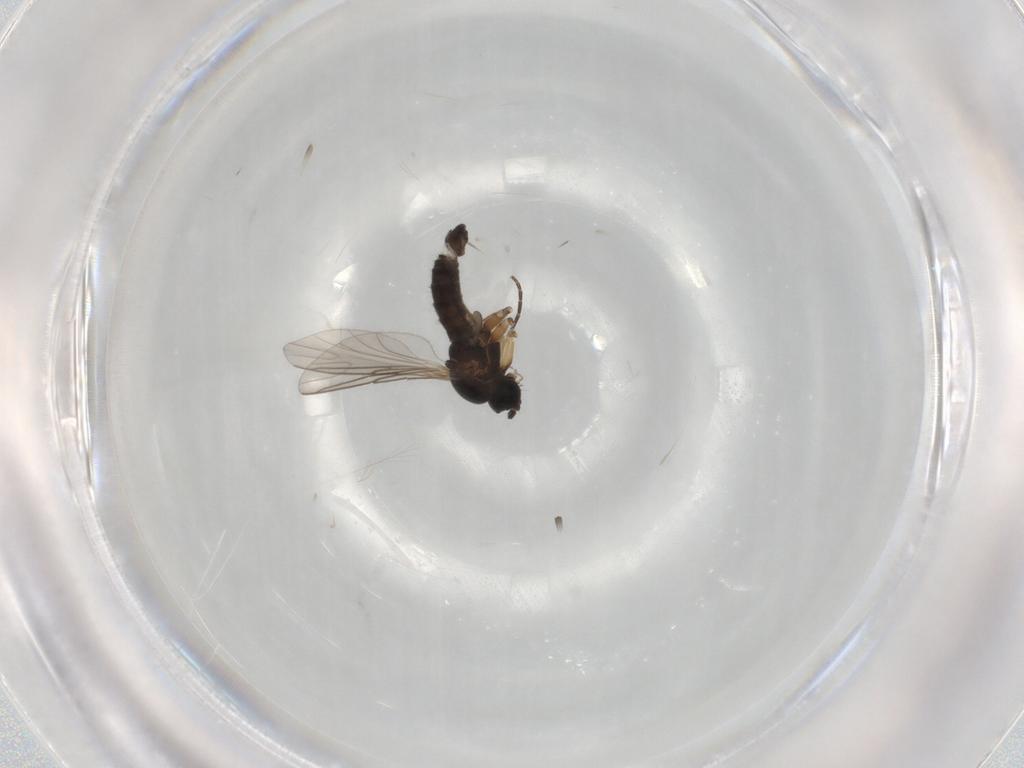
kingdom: Animalia
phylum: Arthropoda
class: Insecta
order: Diptera
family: Sciaridae
